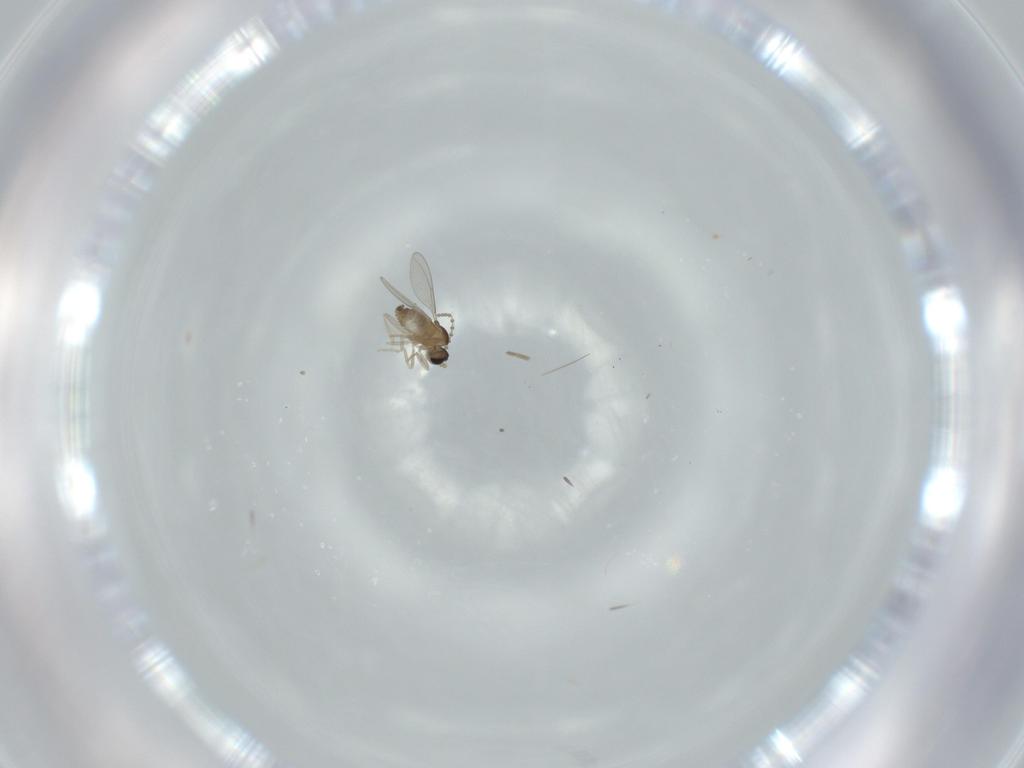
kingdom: Animalia
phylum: Arthropoda
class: Insecta
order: Diptera
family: Cecidomyiidae
